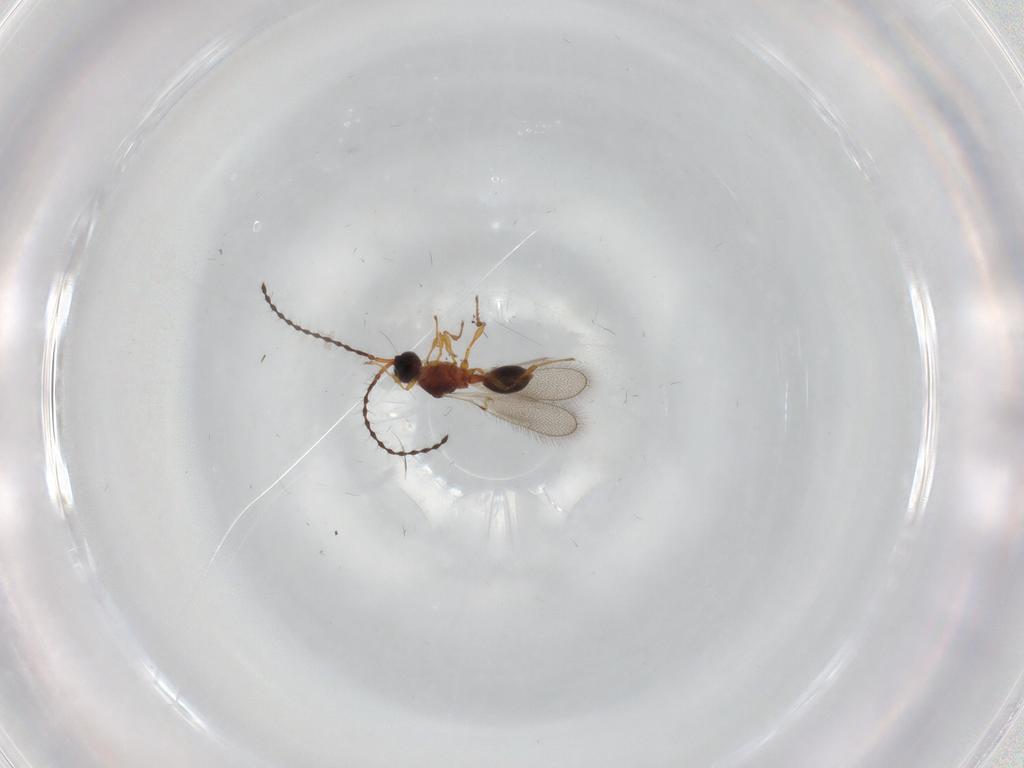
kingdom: Animalia
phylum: Arthropoda
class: Insecta
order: Hymenoptera
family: Diapriidae
